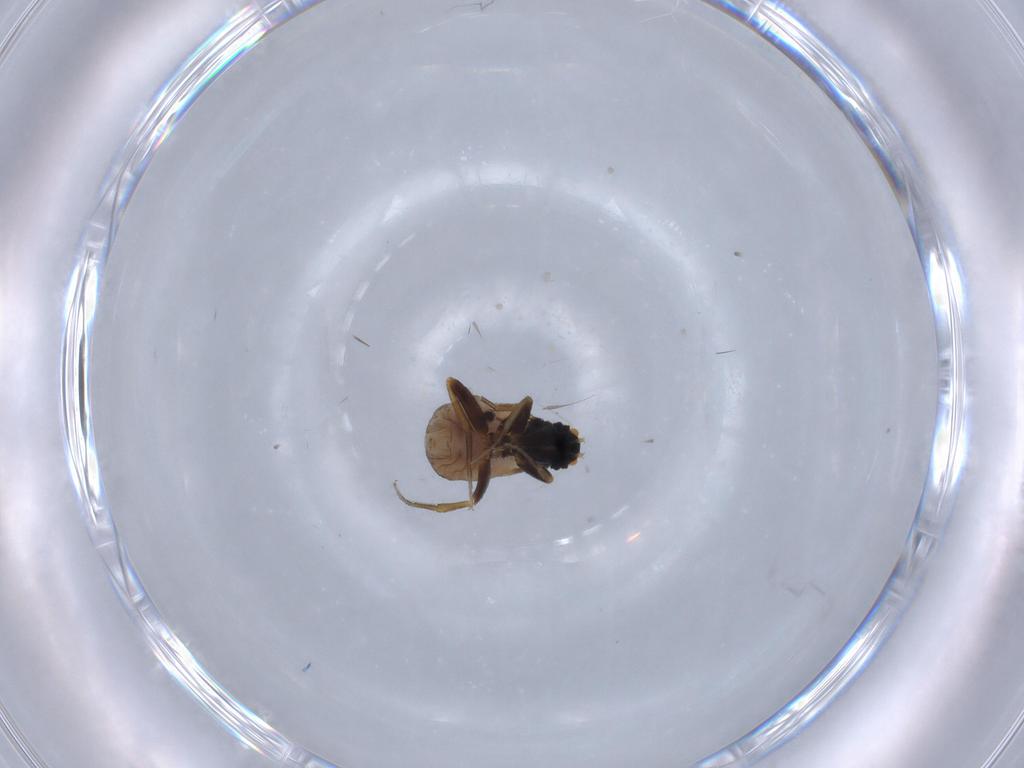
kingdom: Animalia
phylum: Arthropoda
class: Insecta
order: Diptera
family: Phoridae
